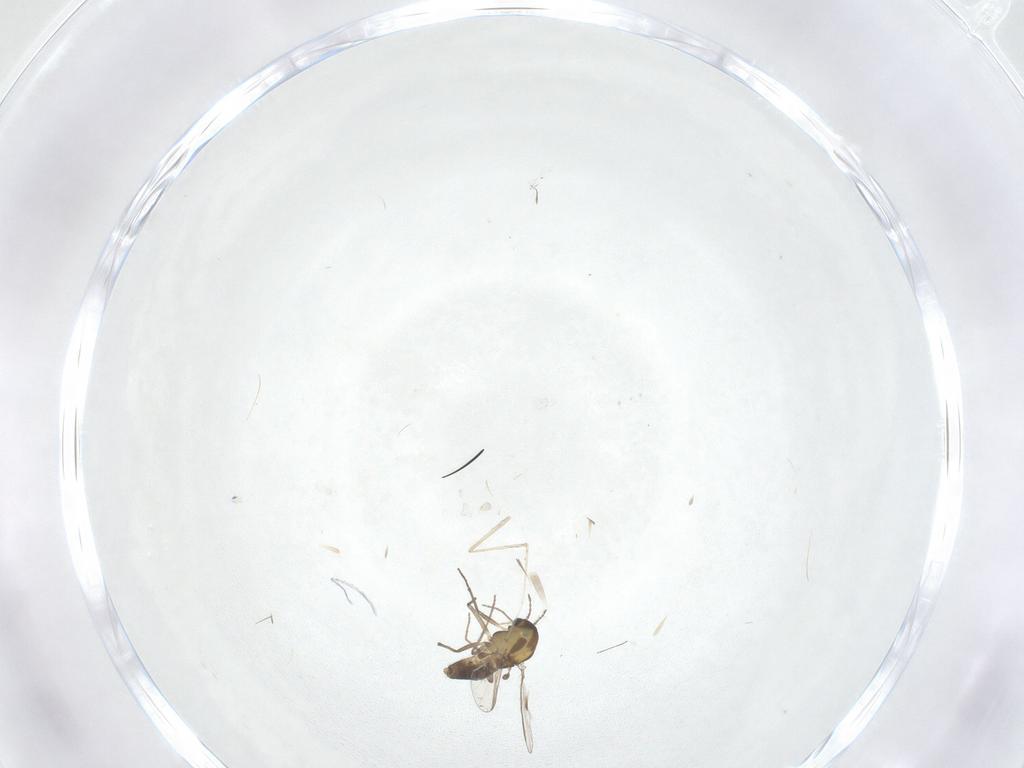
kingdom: Animalia
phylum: Arthropoda
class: Insecta
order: Diptera
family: Chironomidae
